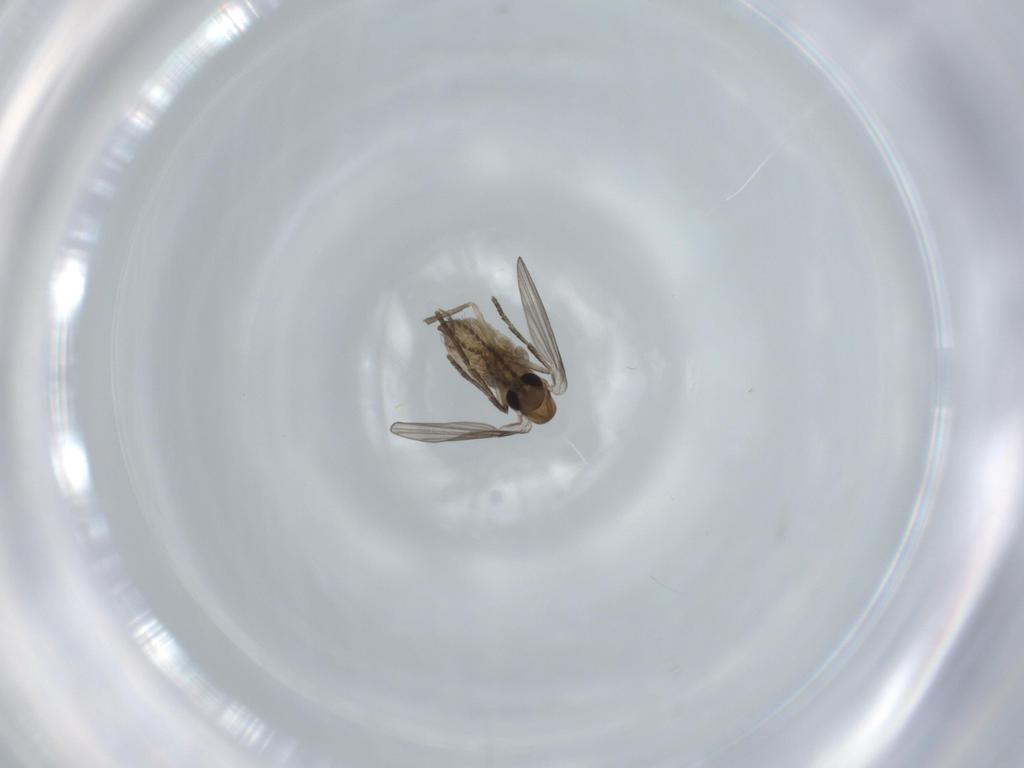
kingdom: Animalia
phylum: Arthropoda
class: Insecta
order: Diptera
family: Psychodidae
